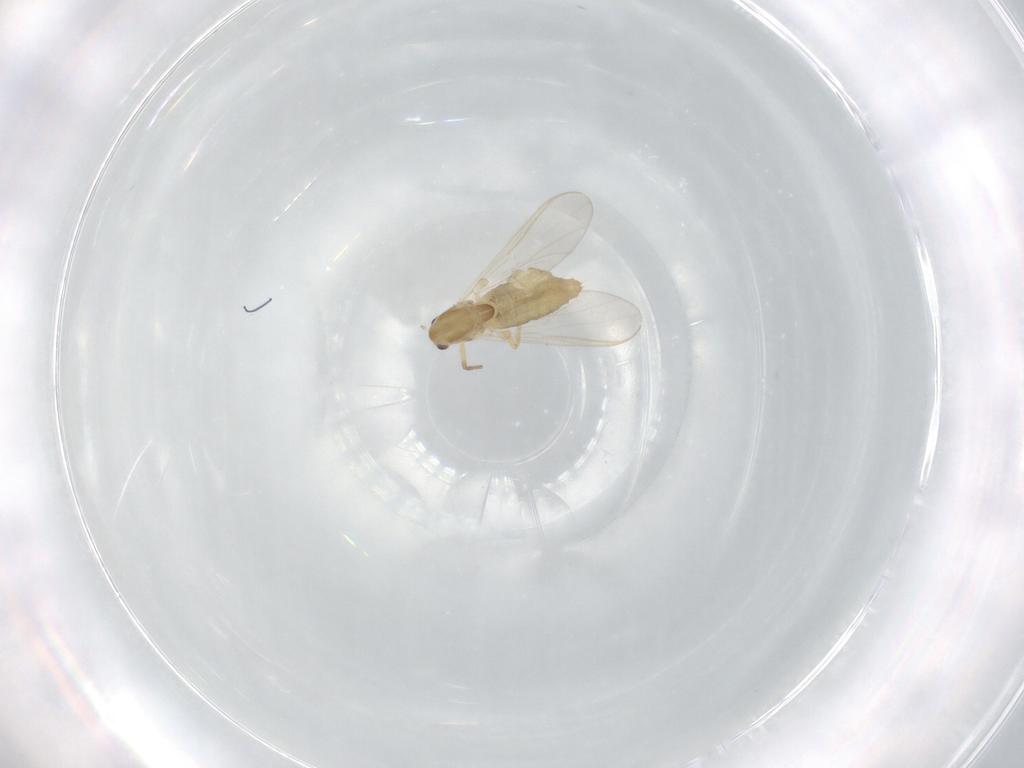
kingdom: Animalia
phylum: Arthropoda
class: Insecta
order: Diptera
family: Chironomidae
